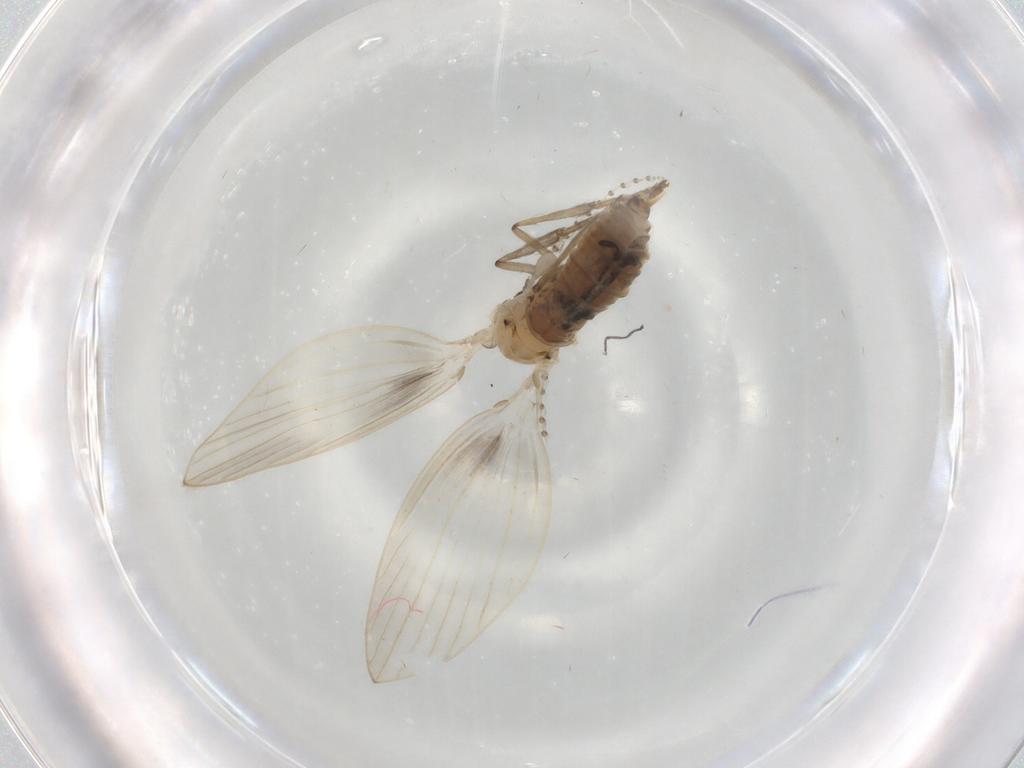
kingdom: Animalia
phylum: Arthropoda
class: Insecta
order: Diptera
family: Psychodidae
